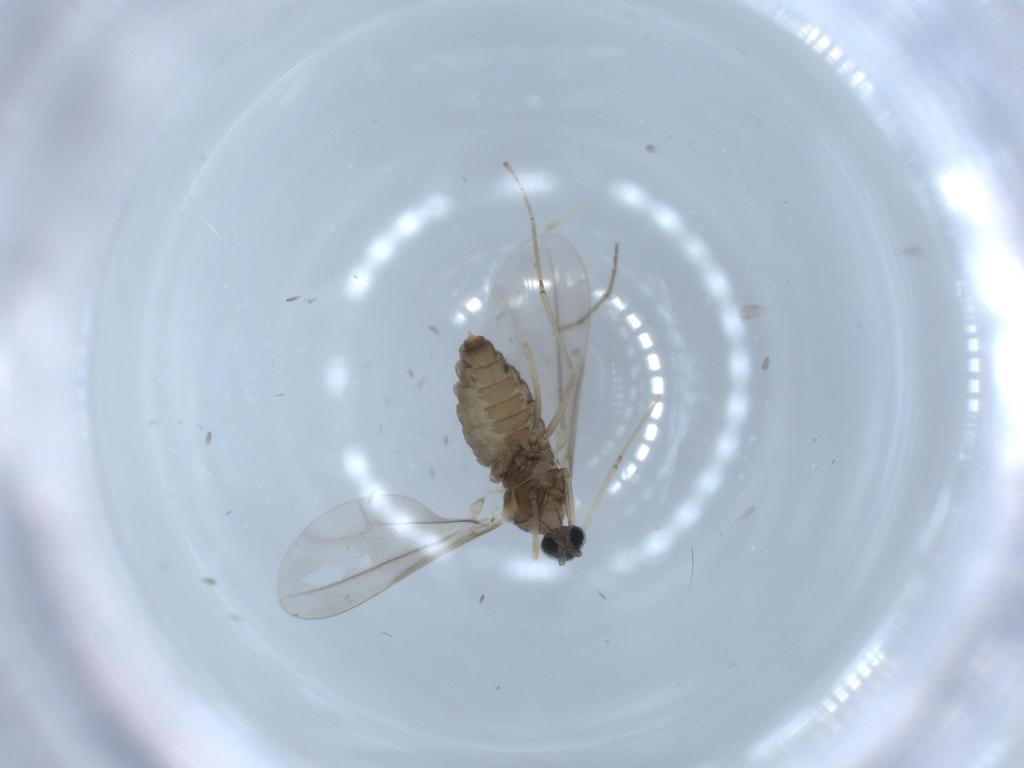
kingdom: Animalia
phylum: Arthropoda
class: Insecta
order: Diptera
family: Cecidomyiidae
